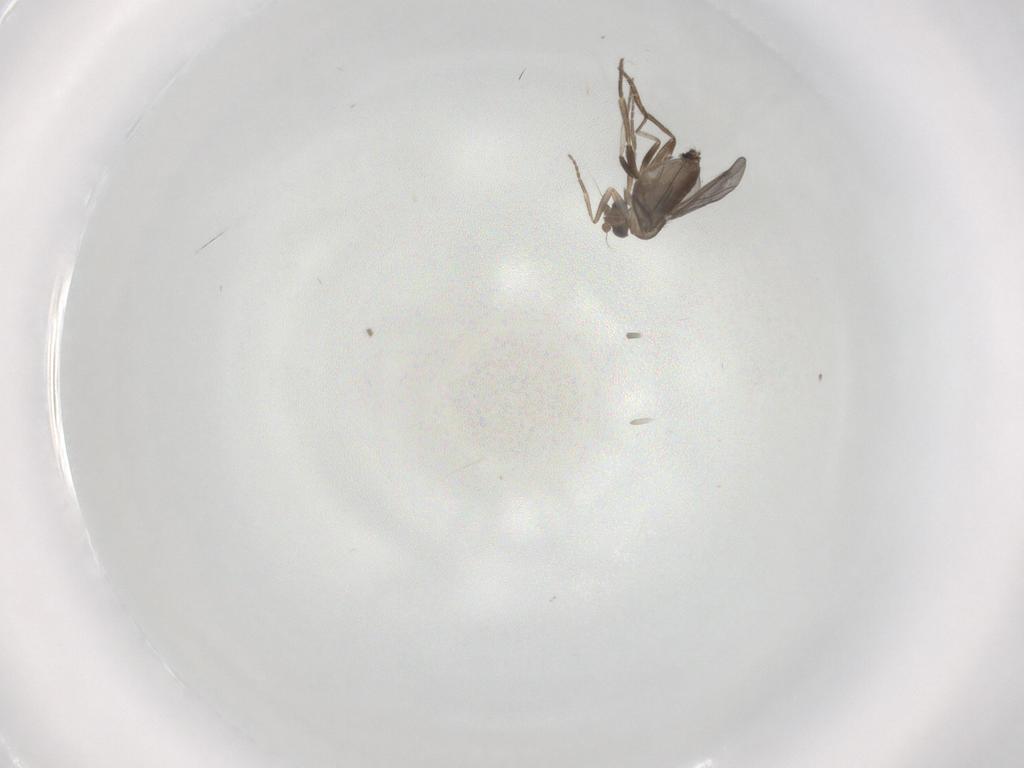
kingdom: Animalia
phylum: Arthropoda
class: Insecta
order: Diptera
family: Phoridae
